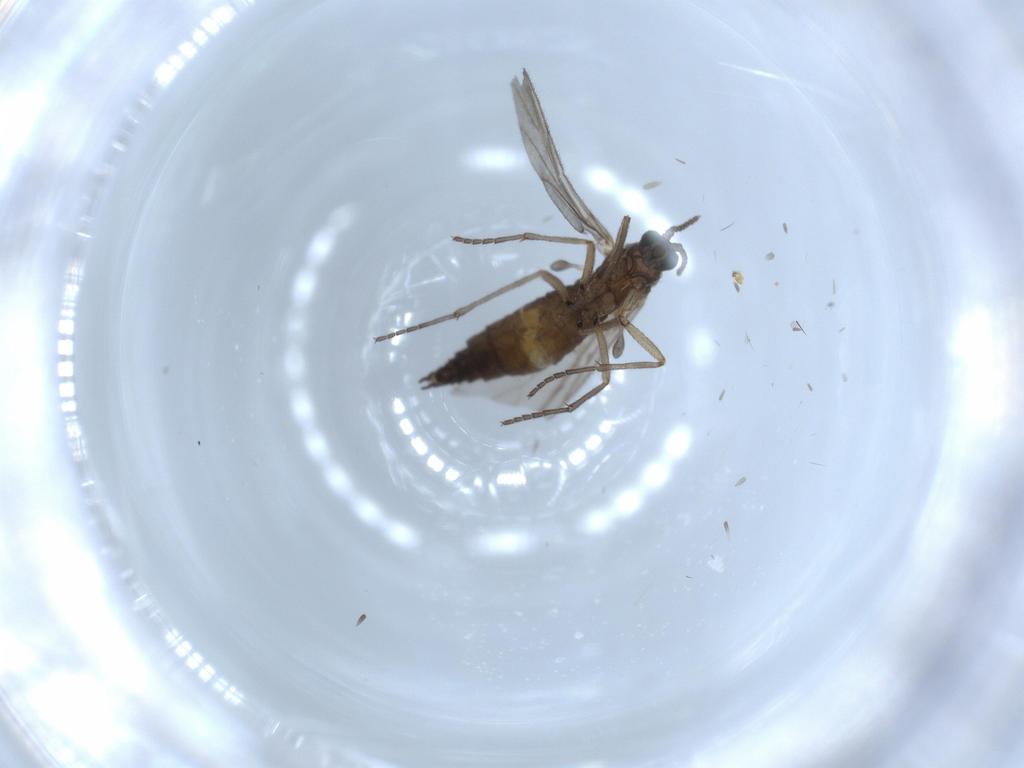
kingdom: Animalia
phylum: Arthropoda
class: Insecta
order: Diptera
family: Sciaridae
